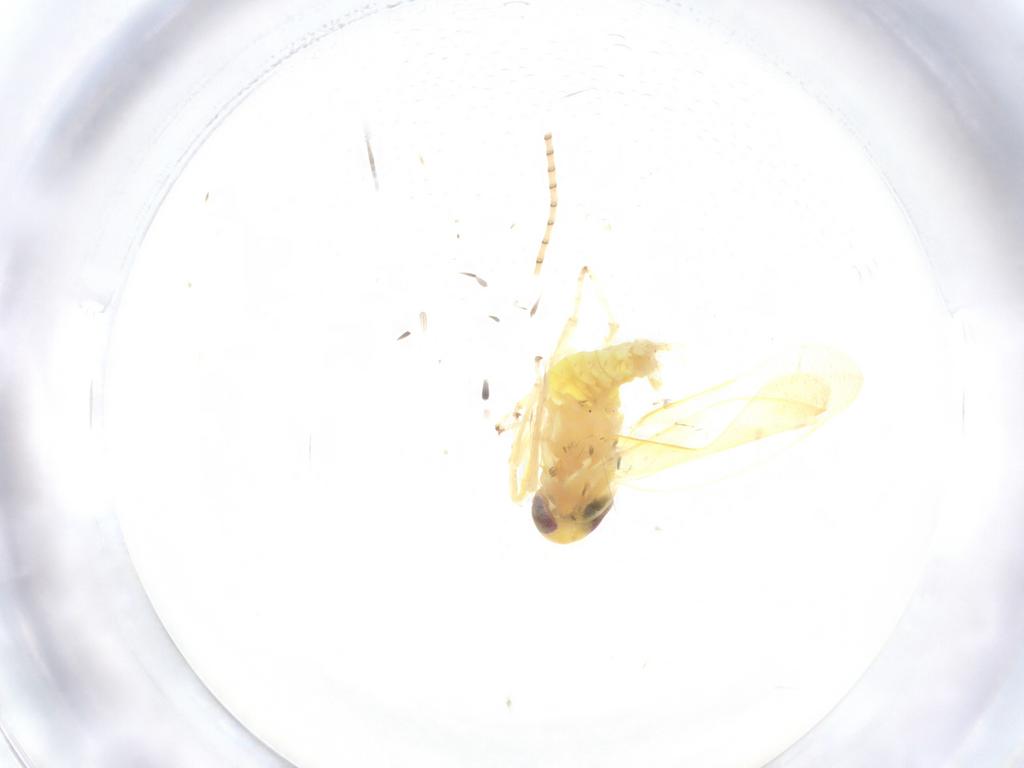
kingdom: Animalia
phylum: Arthropoda
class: Insecta
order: Hemiptera
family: Cicadellidae
